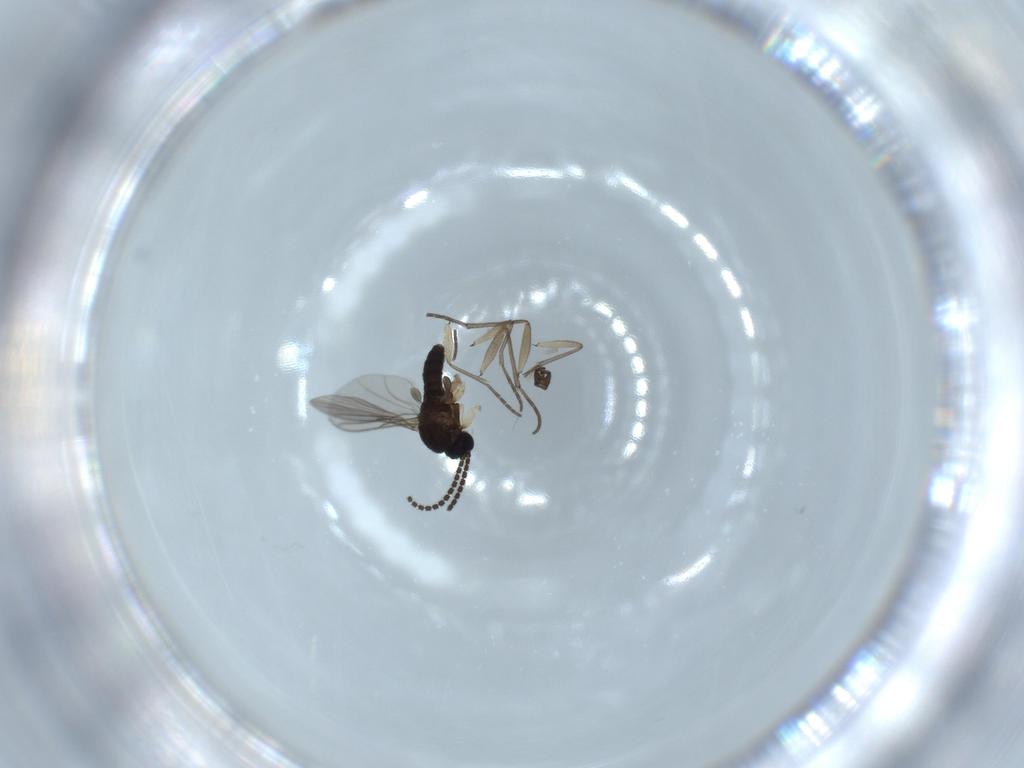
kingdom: Animalia
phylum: Arthropoda
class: Insecta
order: Diptera
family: Sciaridae
